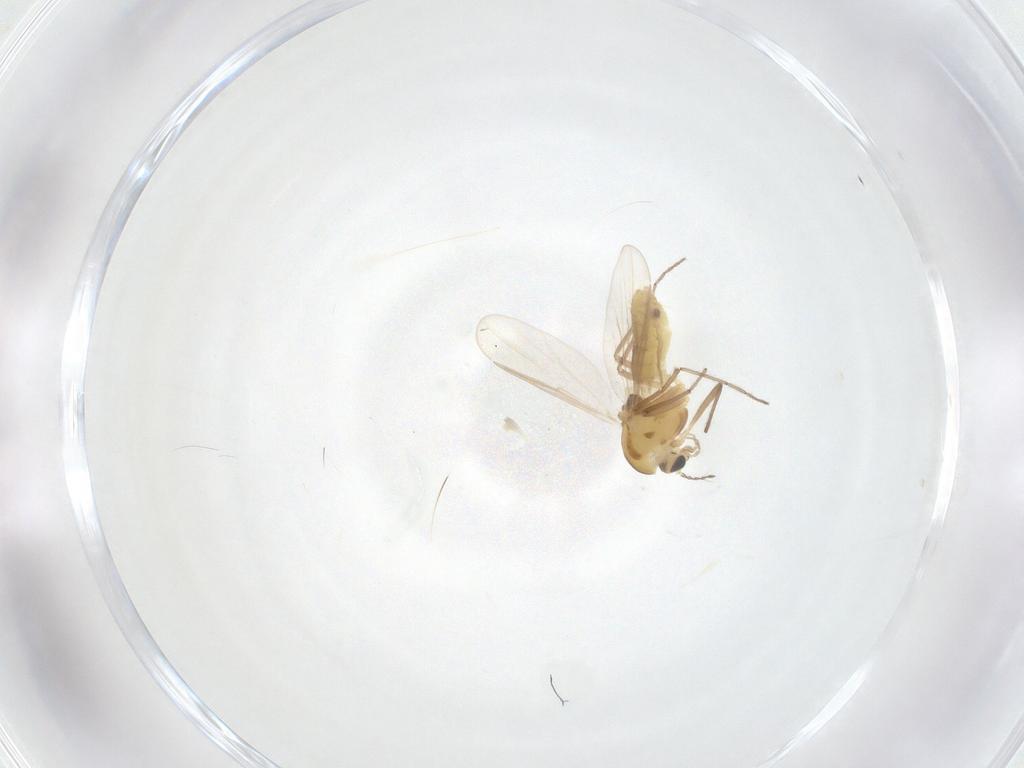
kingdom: Animalia
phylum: Arthropoda
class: Insecta
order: Diptera
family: Chironomidae
